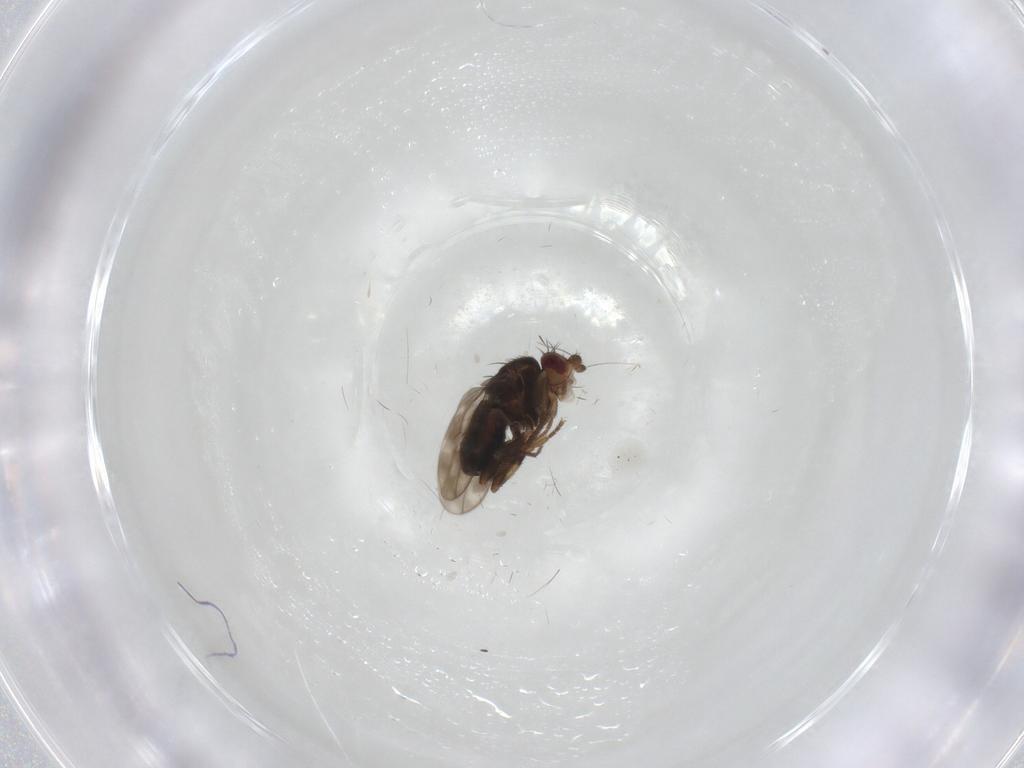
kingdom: Animalia
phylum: Arthropoda
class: Insecta
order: Diptera
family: Sphaeroceridae
